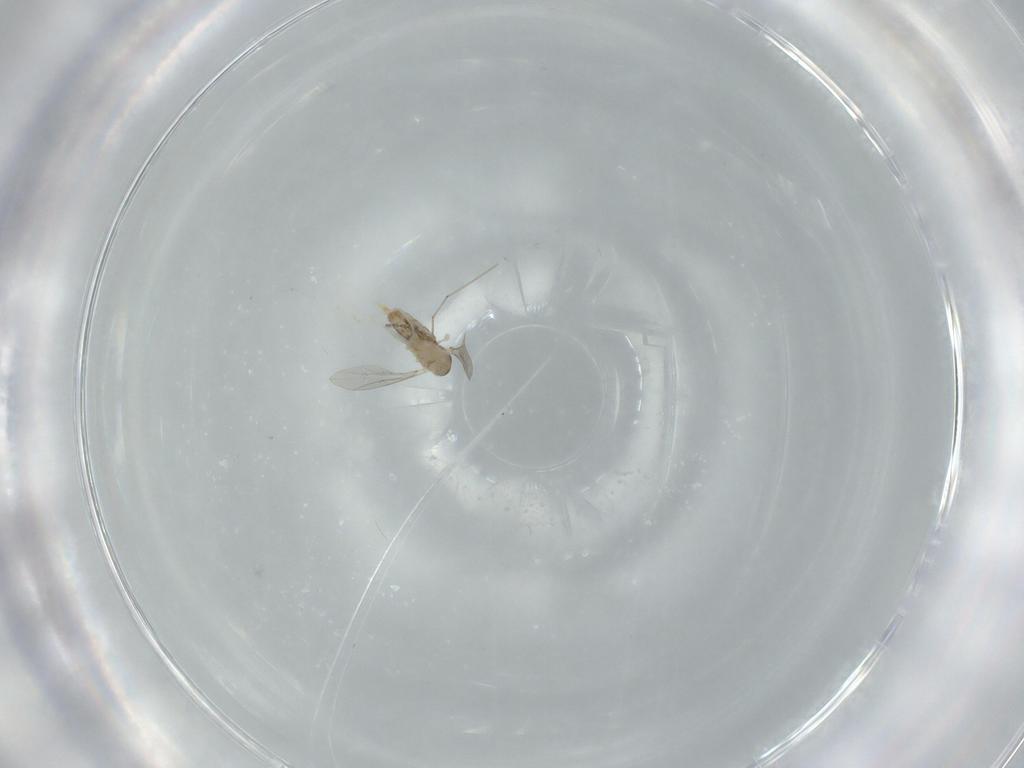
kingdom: Animalia
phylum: Arthropoda
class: Insecta
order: Diptera
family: Cecidomyiidae
